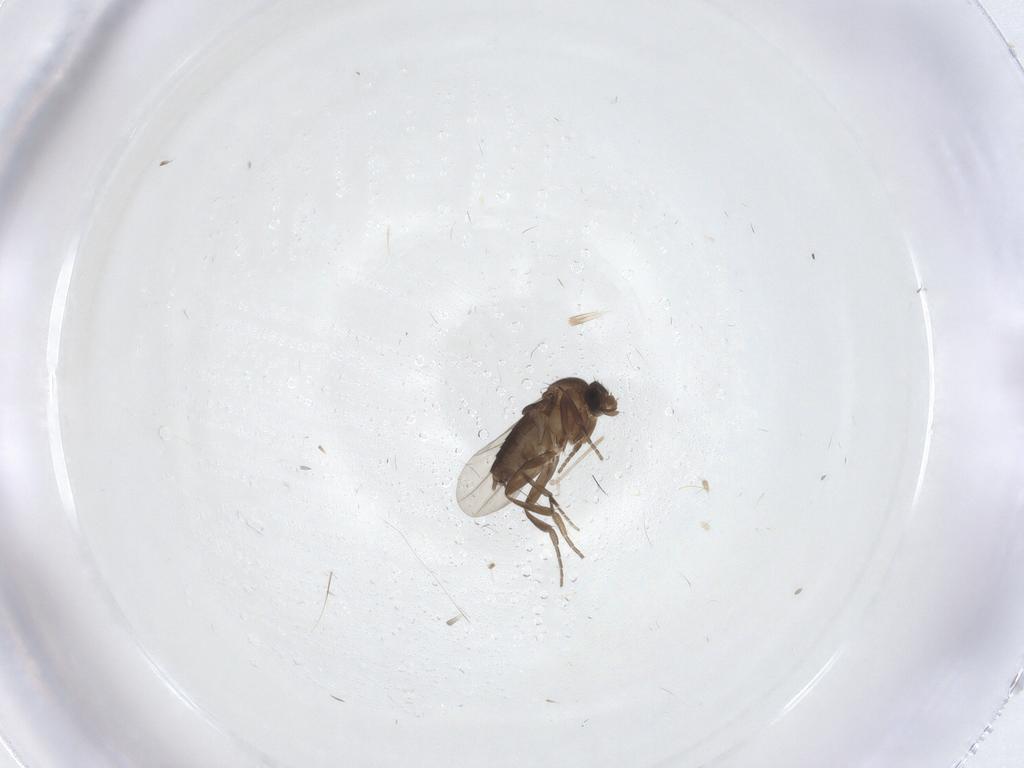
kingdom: Animalia
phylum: Arthropoda
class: Insecta
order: Diptera
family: Phoridae
